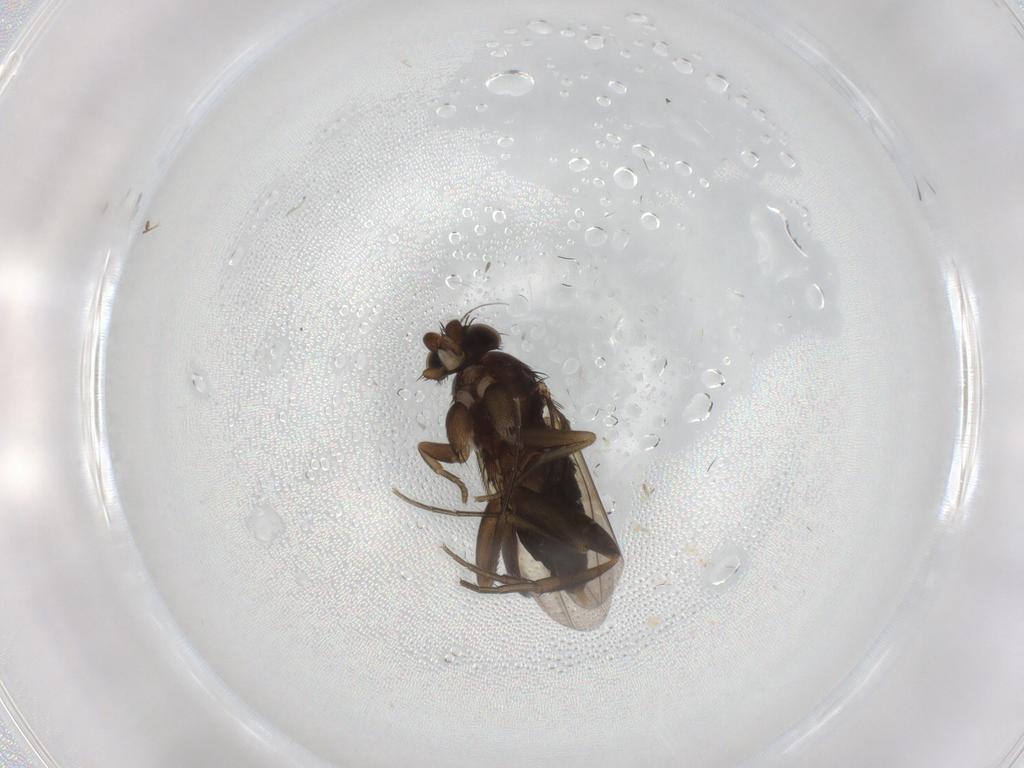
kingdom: Animalia
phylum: Arthropoda
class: Insecta
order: Diptera
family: Phoridae
